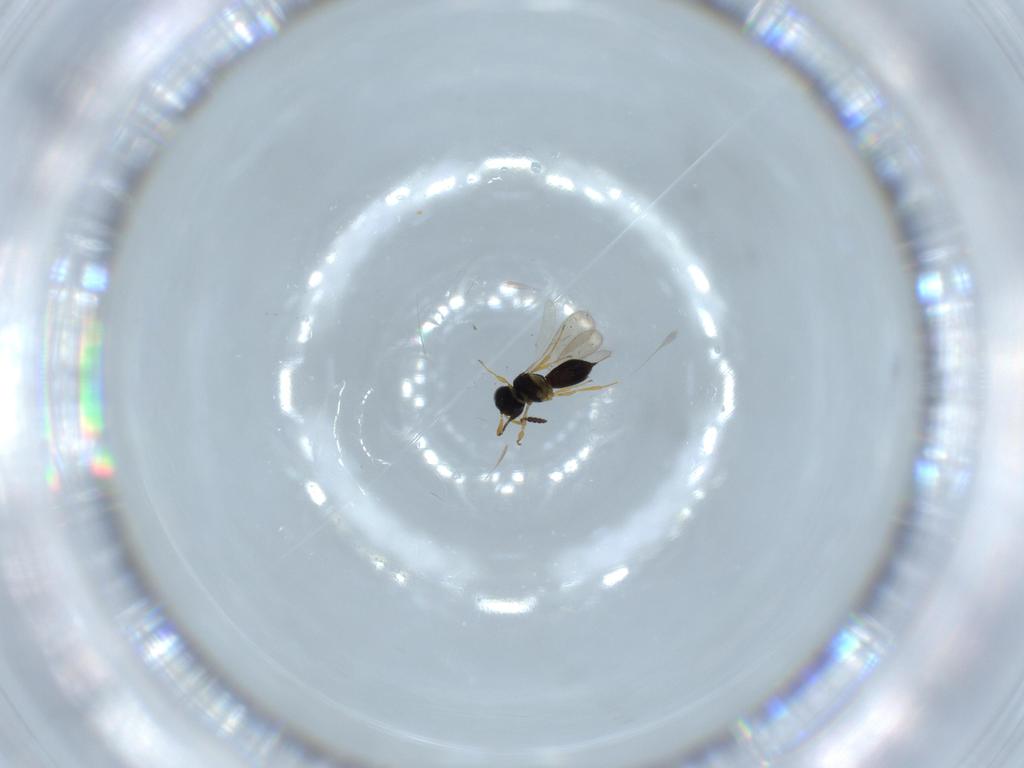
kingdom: Animalia
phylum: Arthropoda
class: Insecta
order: Hymenoptera
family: Scelionidae
